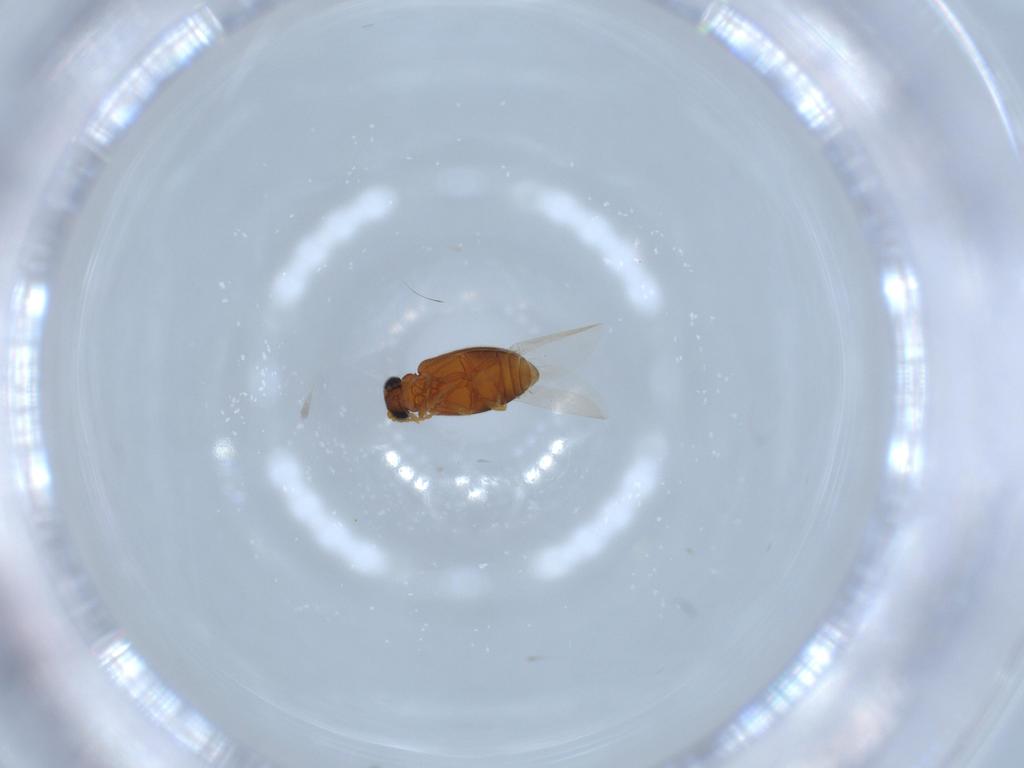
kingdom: Animalia
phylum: Arthropoda
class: Insecta
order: Coleoptera
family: Aderidae
